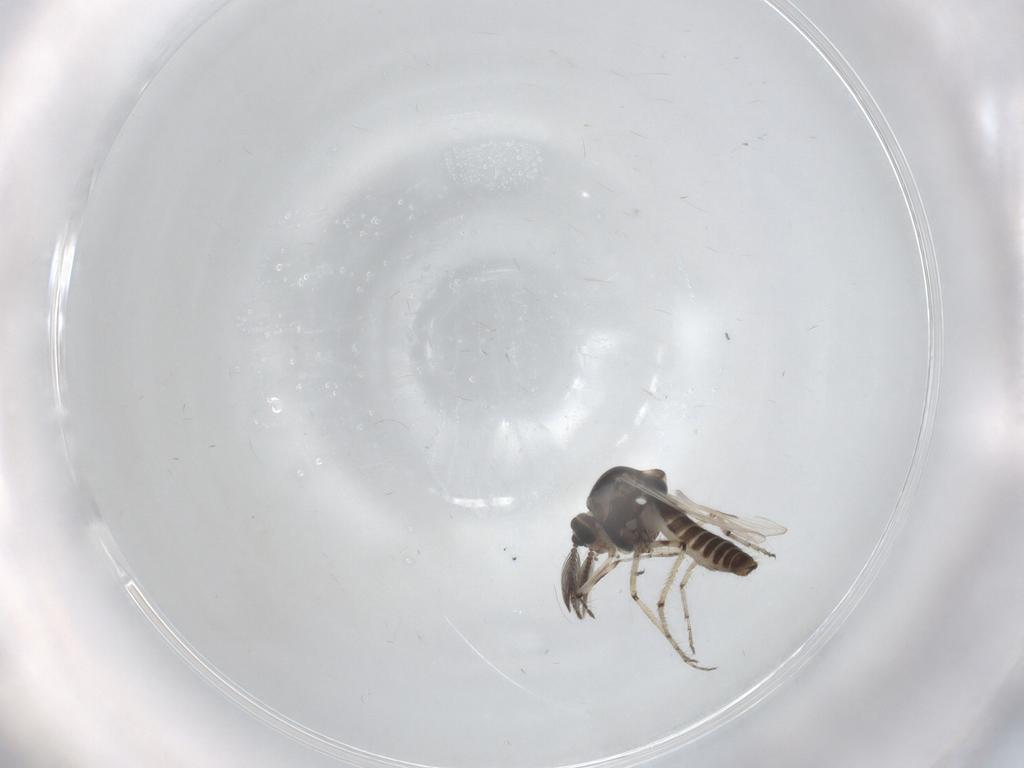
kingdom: Animalia
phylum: Arthropoda
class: Insecta
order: Diptera
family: Ceratopogonidae
